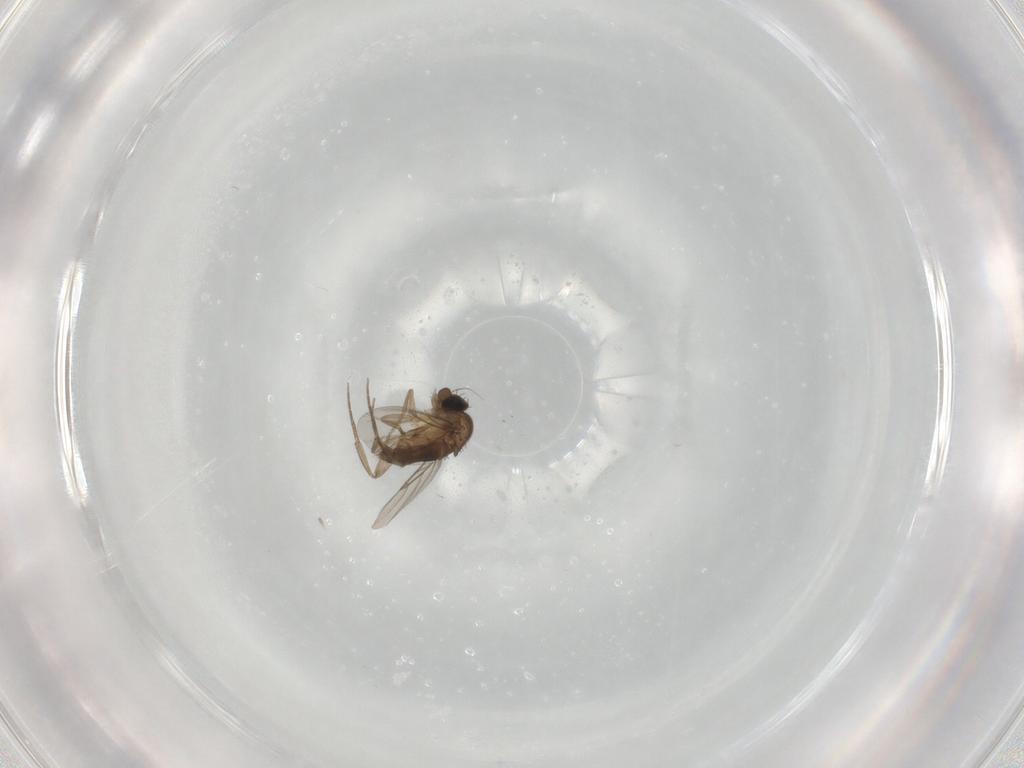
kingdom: Animalia
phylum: Arthropoda
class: Insecta
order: Diptera
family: Phoridae
